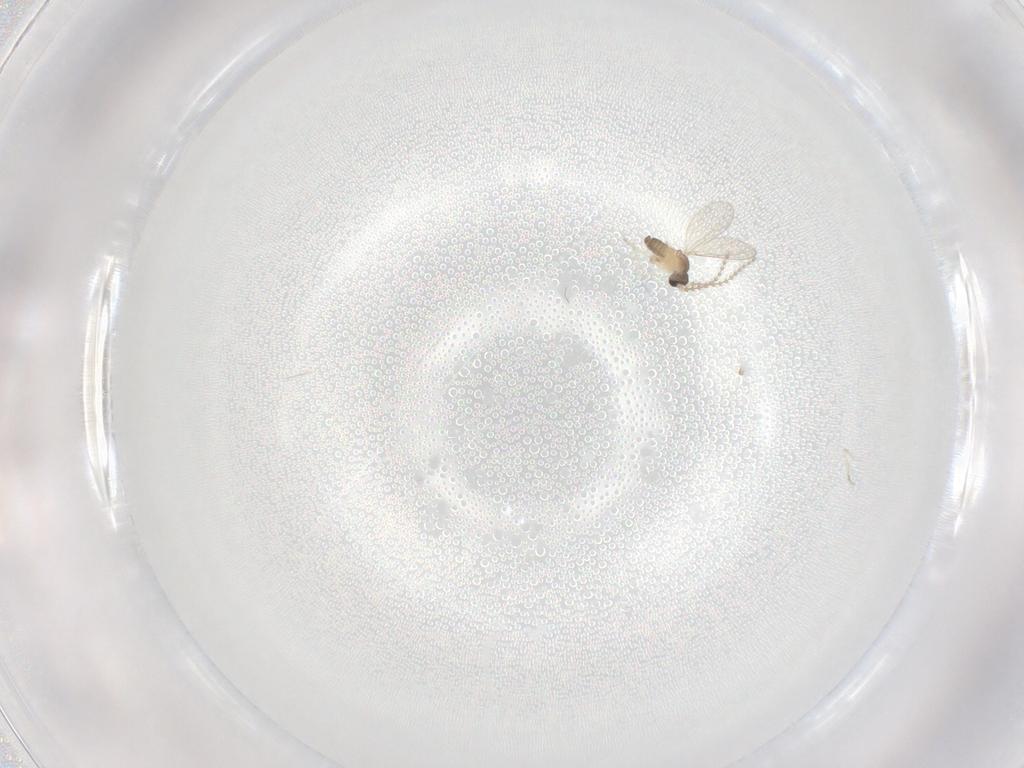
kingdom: Animalia
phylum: Arthropoda
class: Insecta
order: Diptera
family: Cecidomyiidae
